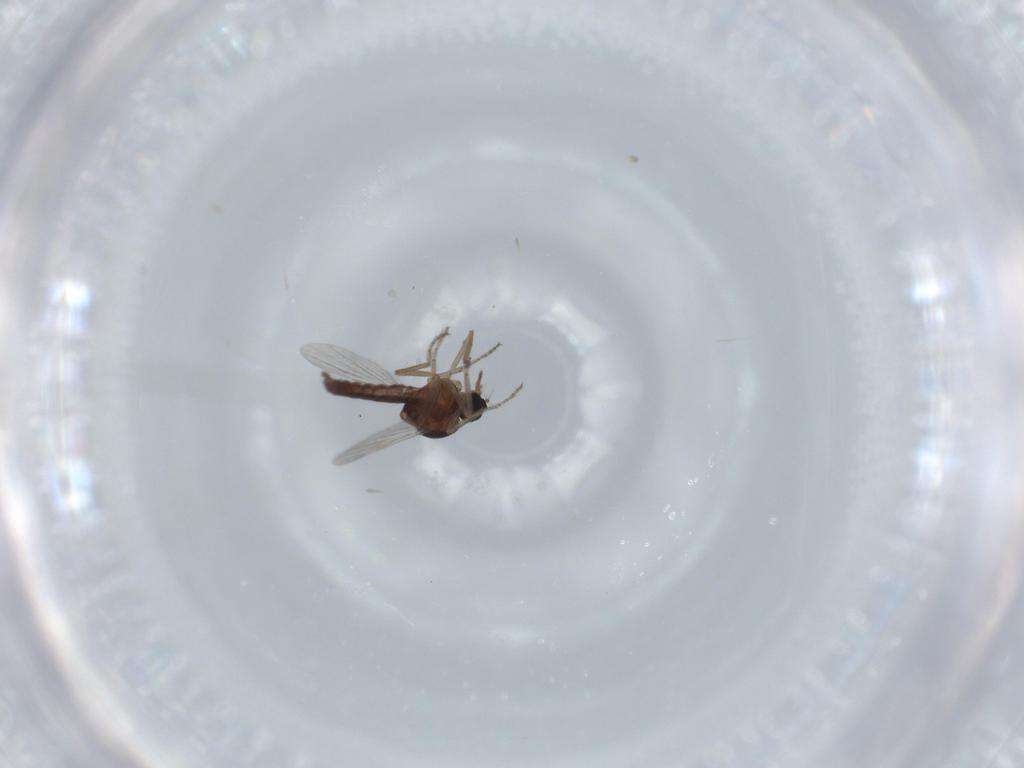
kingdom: Animalia
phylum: Arthropoda
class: Insecta
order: Diptera
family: Ceratopogonidae
